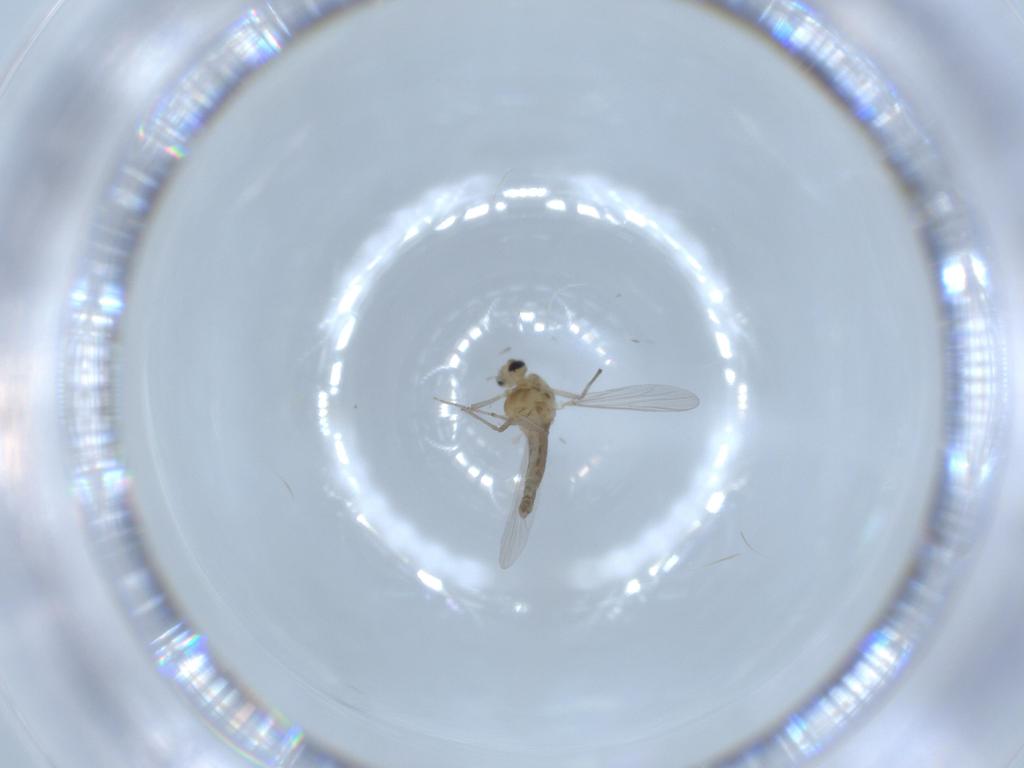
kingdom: Animalia
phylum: Arthropoda
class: Insecta
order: Diptera
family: Chironomidae
